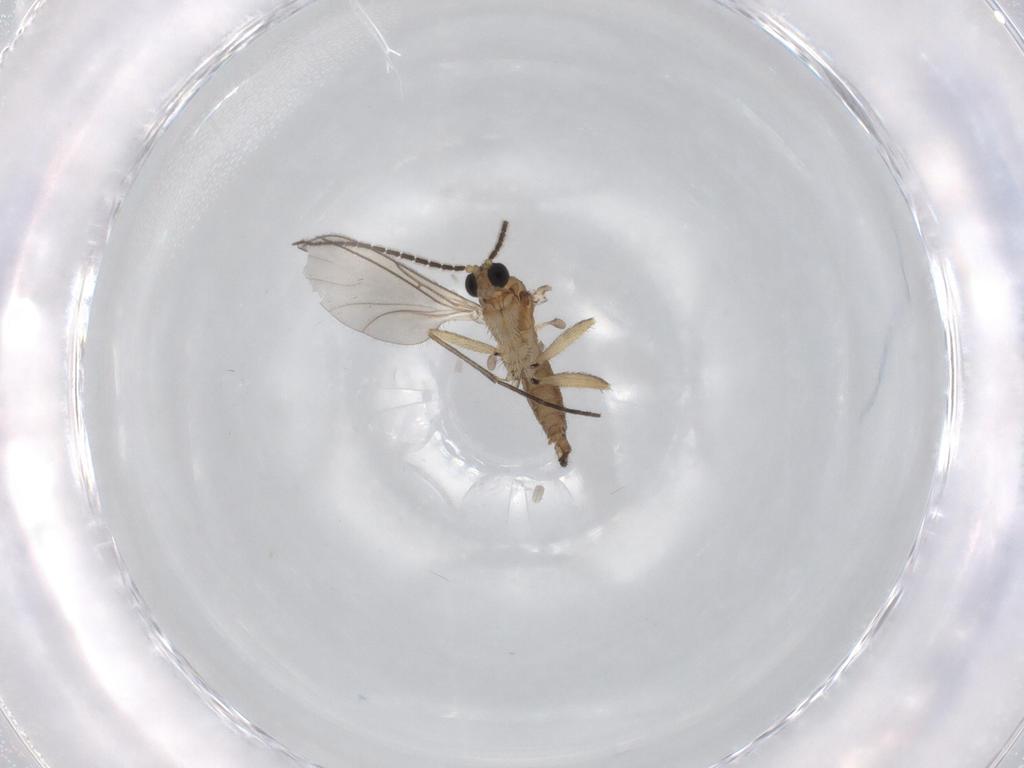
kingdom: Animalia
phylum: Arthropoda
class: Insecta
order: Diptera
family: Sciaridae
